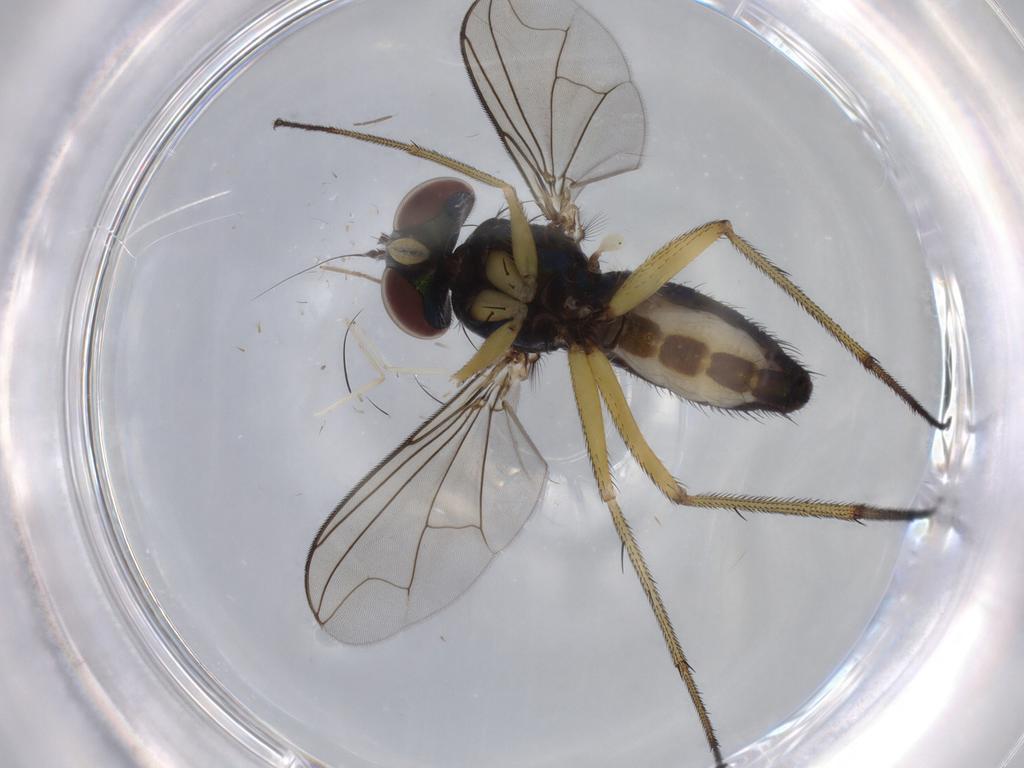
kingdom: Animalia
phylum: Arthropoda
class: Insecta
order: Diptera
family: Dolichopodidae
